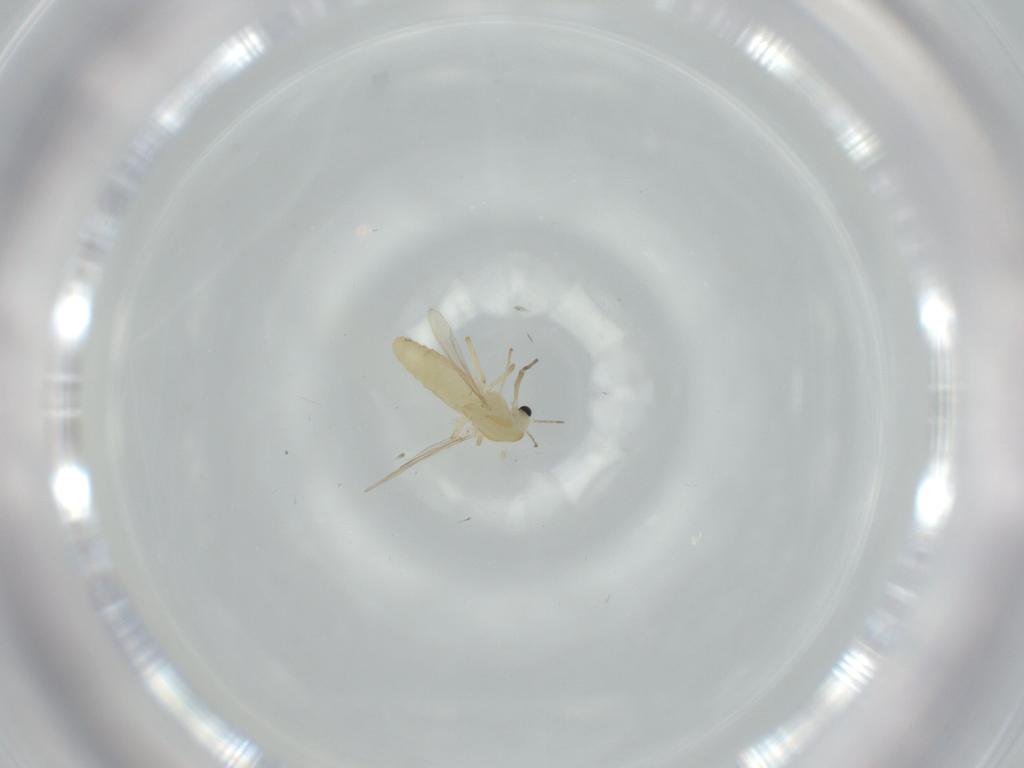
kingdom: Animalia
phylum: Arthropoda
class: Insecta
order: Diptera
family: Chironomidae
